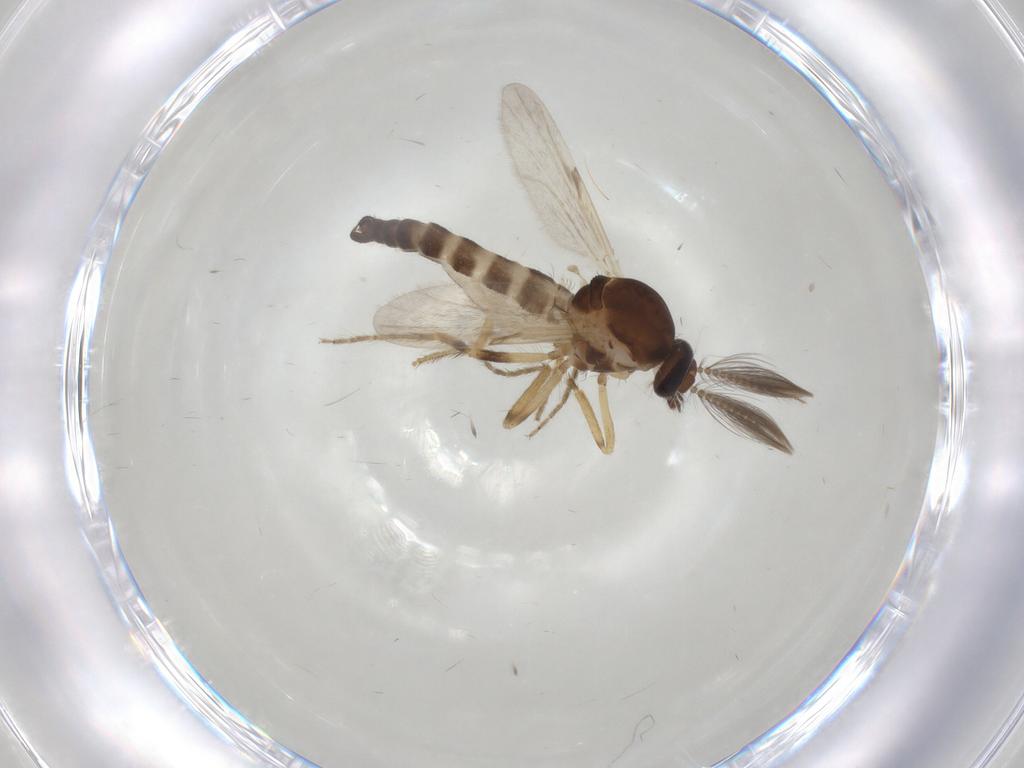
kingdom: Animalia
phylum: Arthropoda
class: Insecta
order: Diptera
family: Ceratopogonidae
